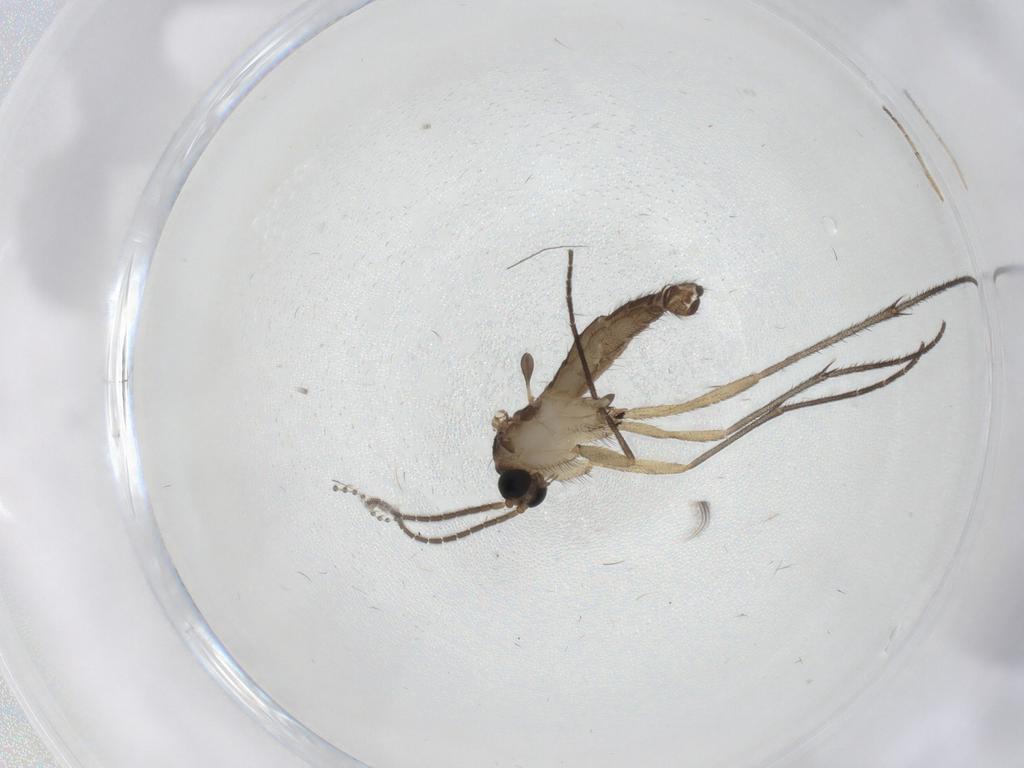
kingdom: Animalia
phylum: Arthropoda
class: Insecta
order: Diptera
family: Sciaridae
